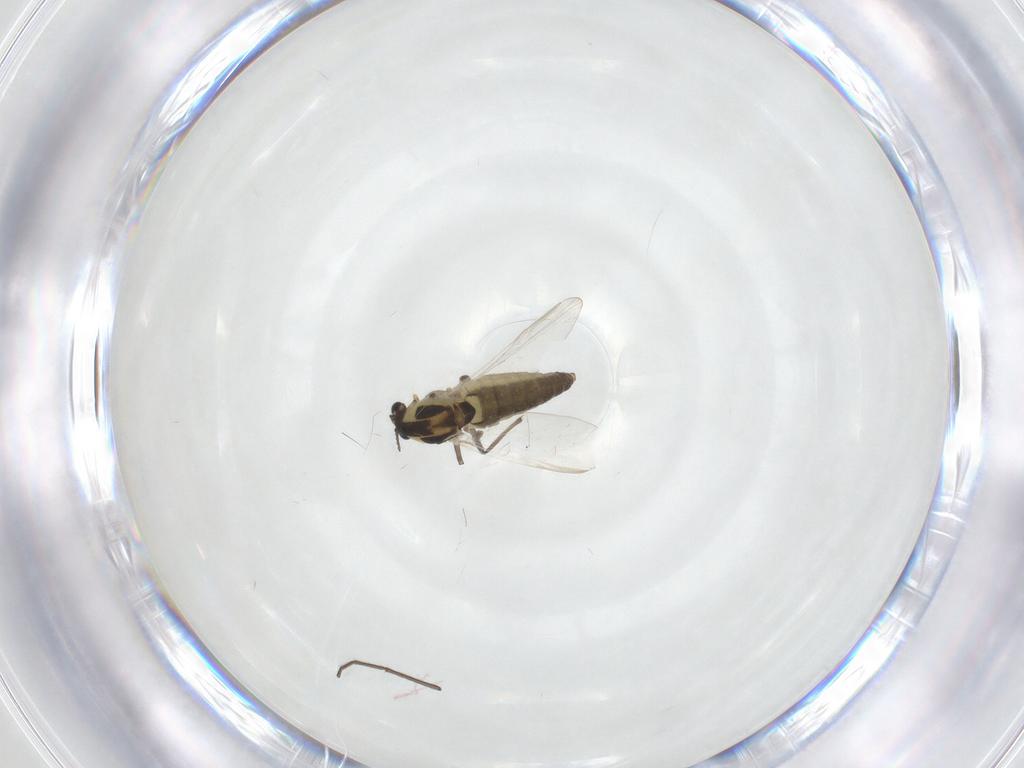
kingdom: Animalia
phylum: Arthropoda
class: Insecta
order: Diptera
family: Chironomidae
